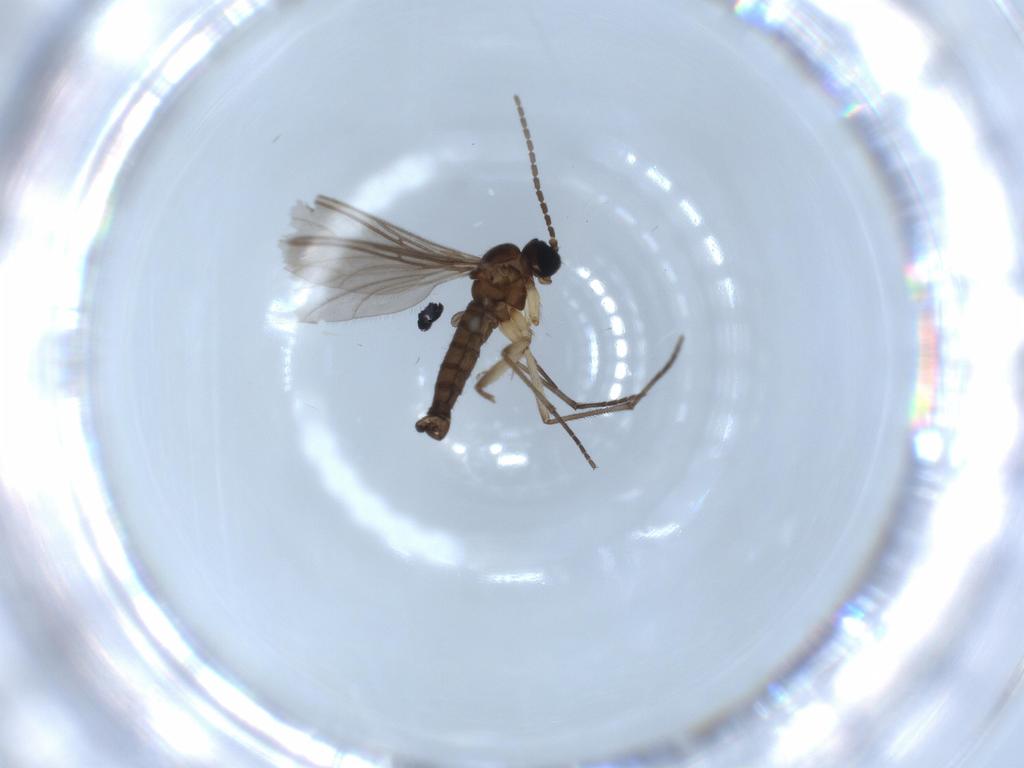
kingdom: Animalia
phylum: Arthropoda
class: Insecta
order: Diptera
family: Sciaridae
